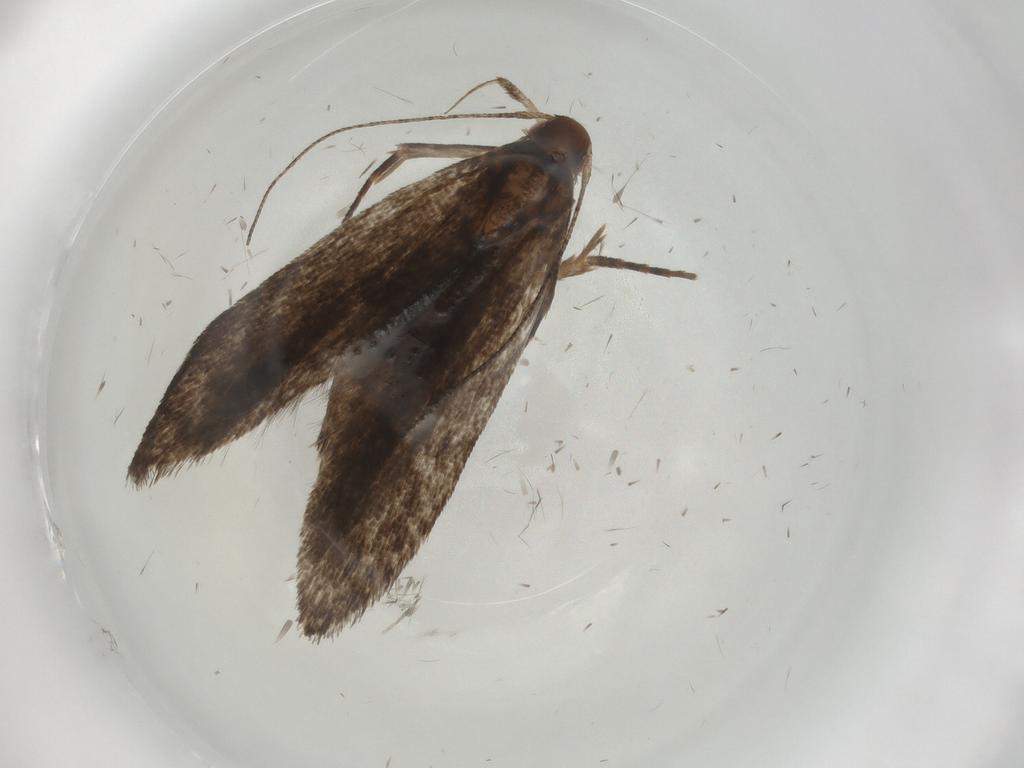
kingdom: Animalia
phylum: Arthropoda
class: Insecta
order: Lepidoptera
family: Gelechiidae
